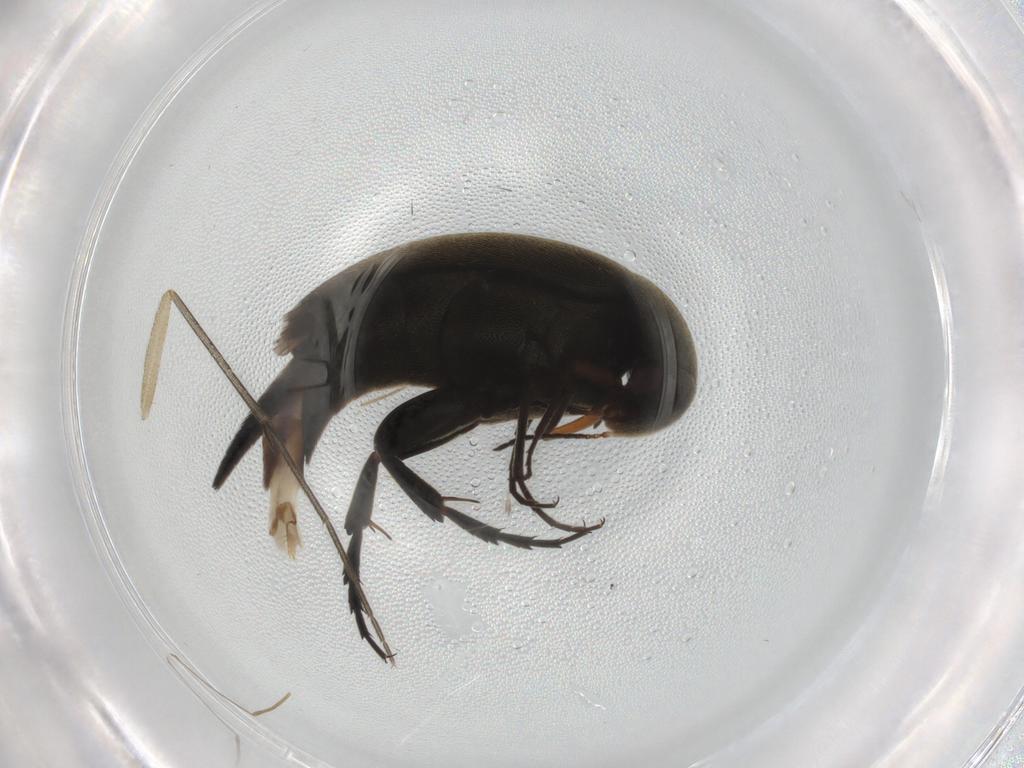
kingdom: Animalia
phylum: Arthropoda
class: Insecta
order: Coleoptera
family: Mordellidae
